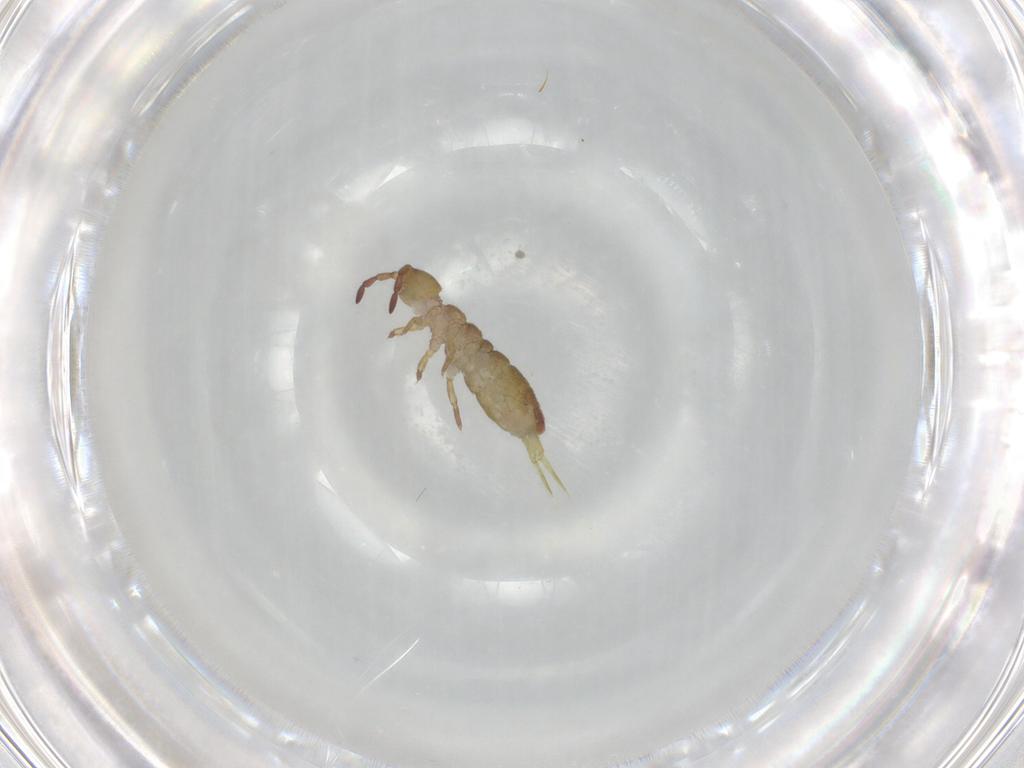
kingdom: Animalia
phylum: Arthropoda
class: Collembola
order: Entomobryomorpha
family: Isotomidae
